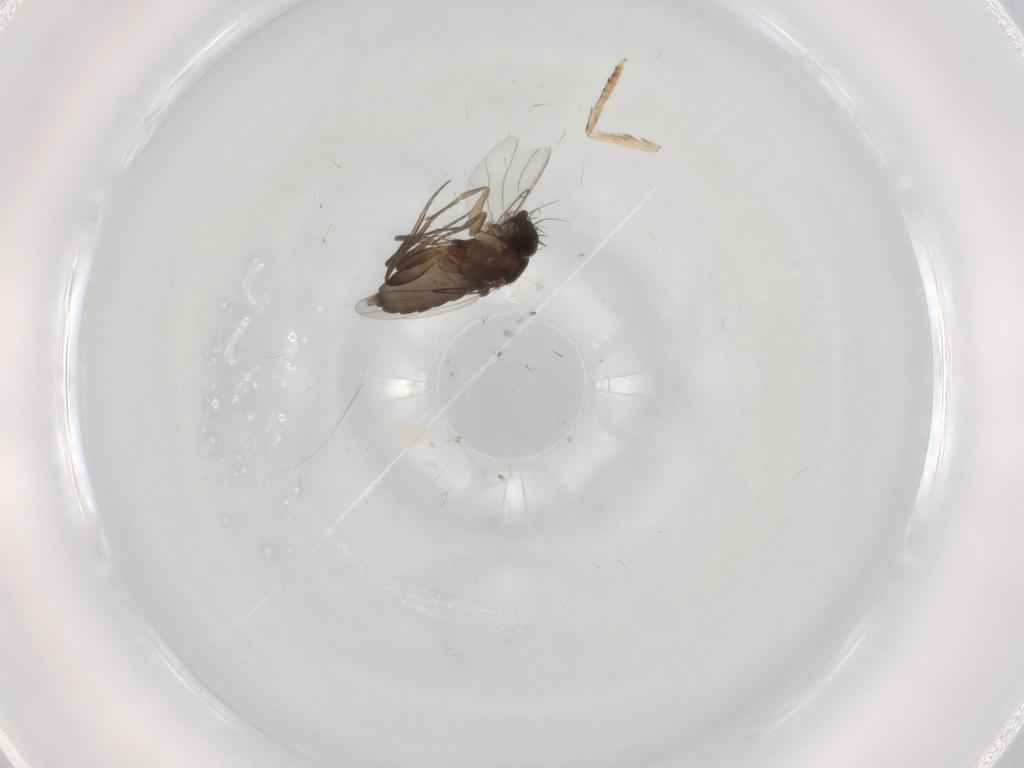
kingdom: Animalia
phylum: Arthropoda
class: Insecta
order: Diptera
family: Phoridae
